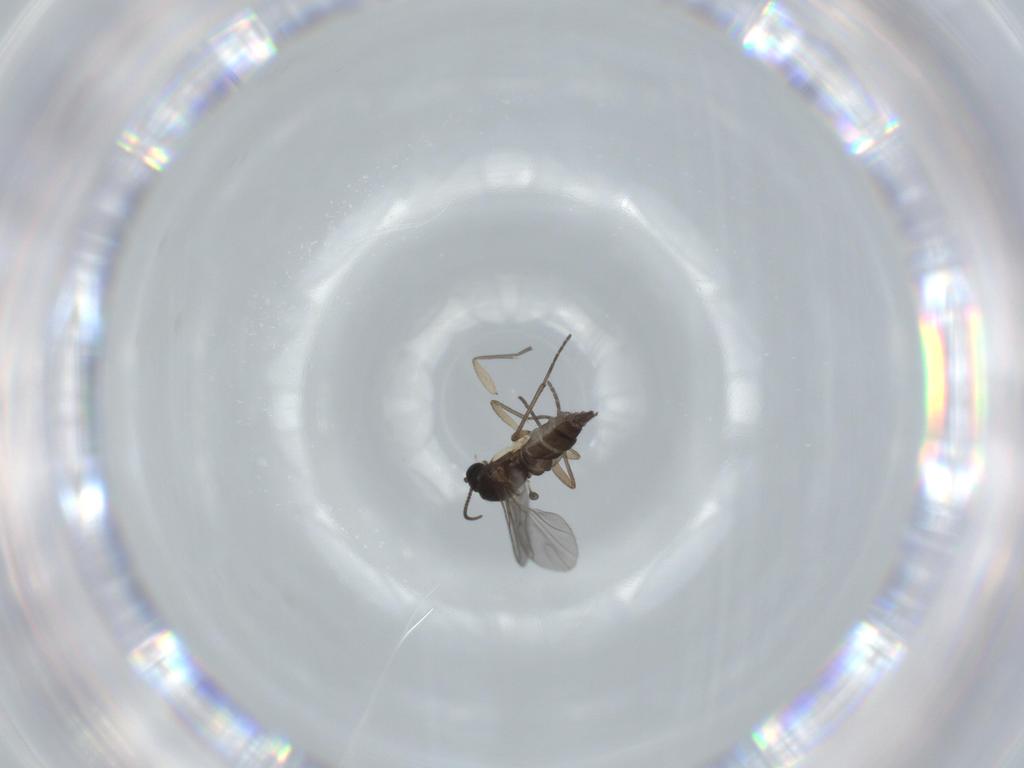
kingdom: Animalia
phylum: Arthropoda
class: Insecta
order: Diptera
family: Sciaridae
